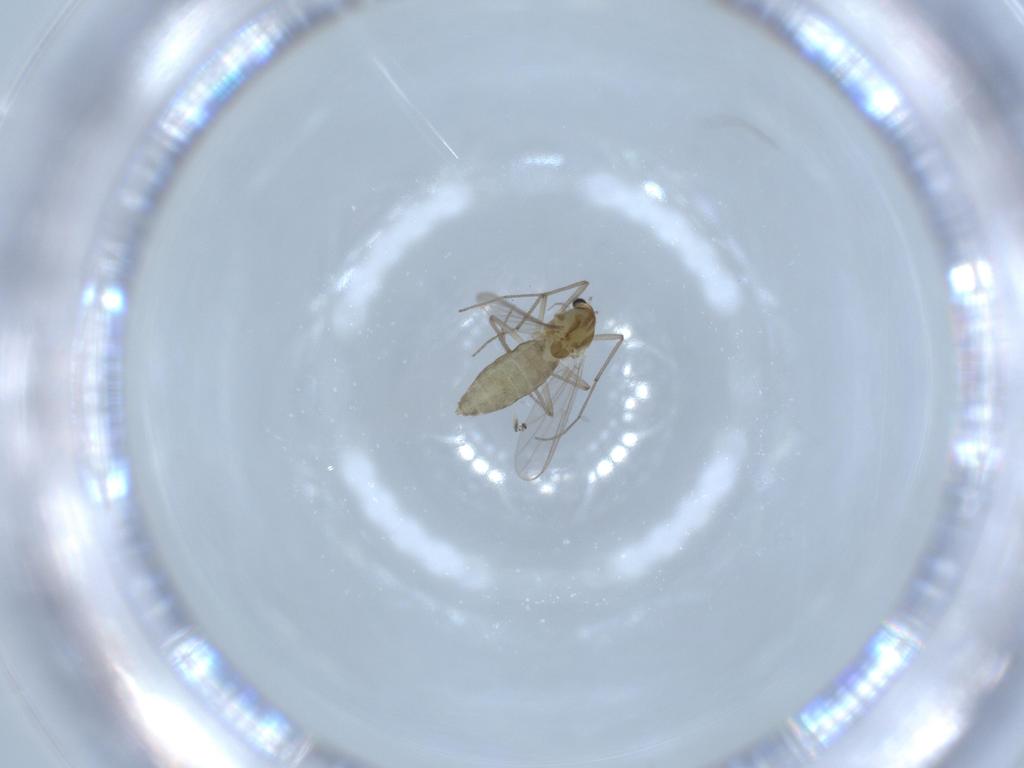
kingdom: Animalia
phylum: Arthropoda
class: Insecta
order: Diptera
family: Chironomidae
